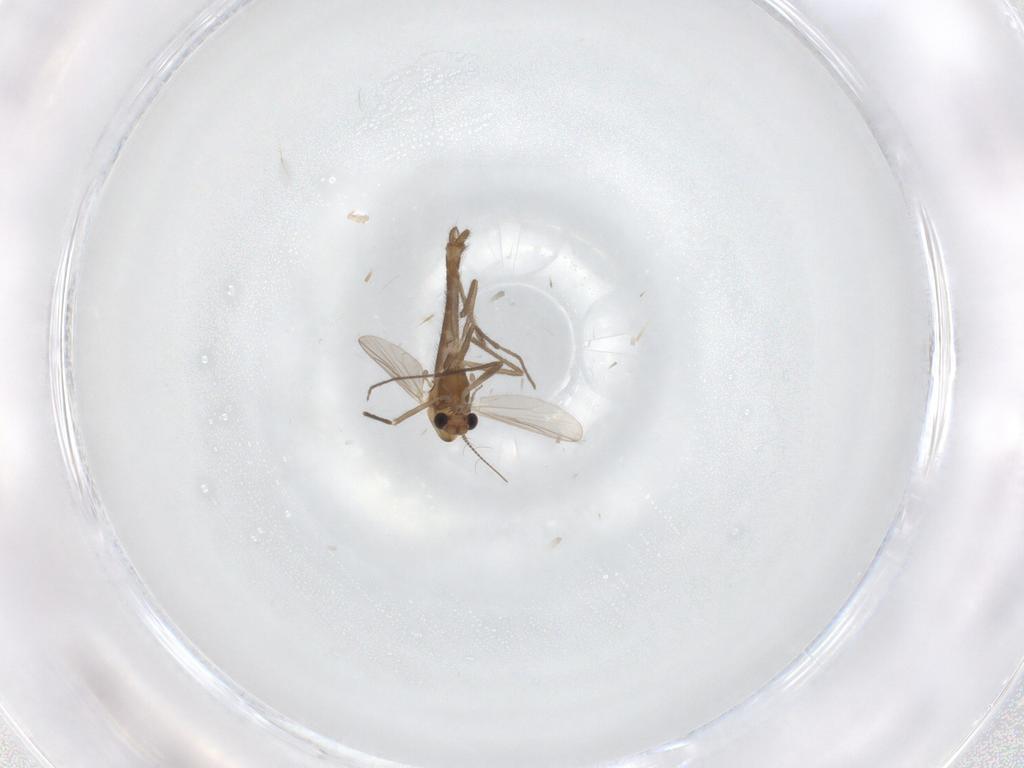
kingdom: Animalia
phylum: Arthropoda
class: Insecta
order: Diptera
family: Chironomidae
